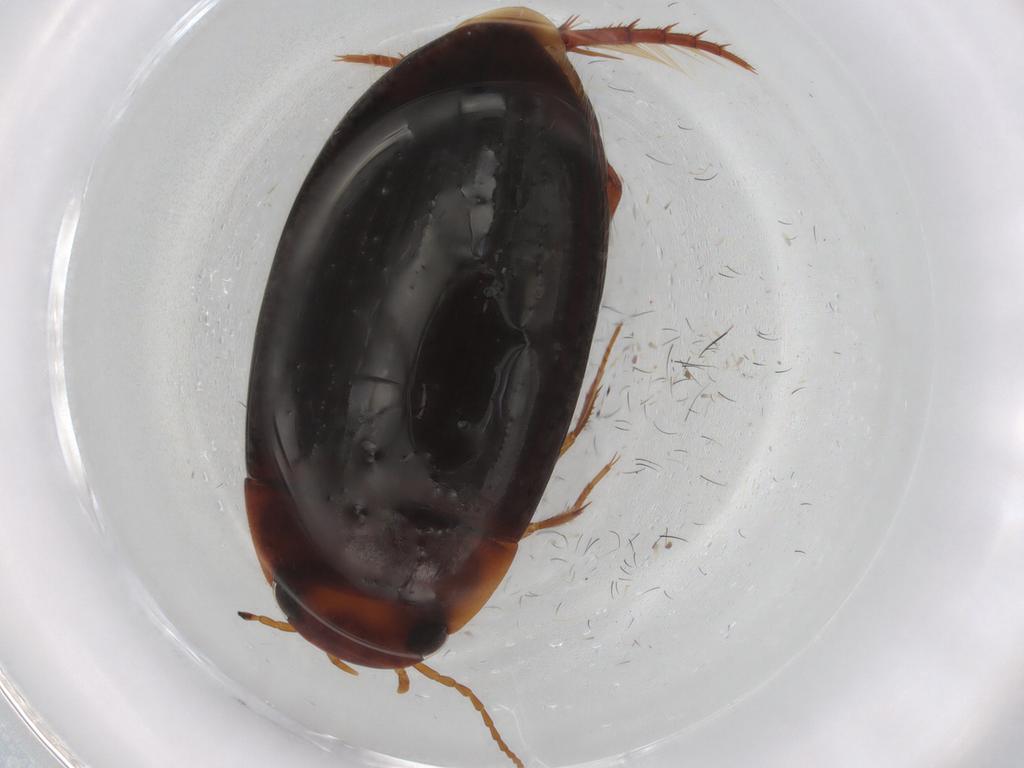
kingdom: Animalia
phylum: Arthropoda
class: Insecta
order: Coleoptera
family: Dytiscidae
